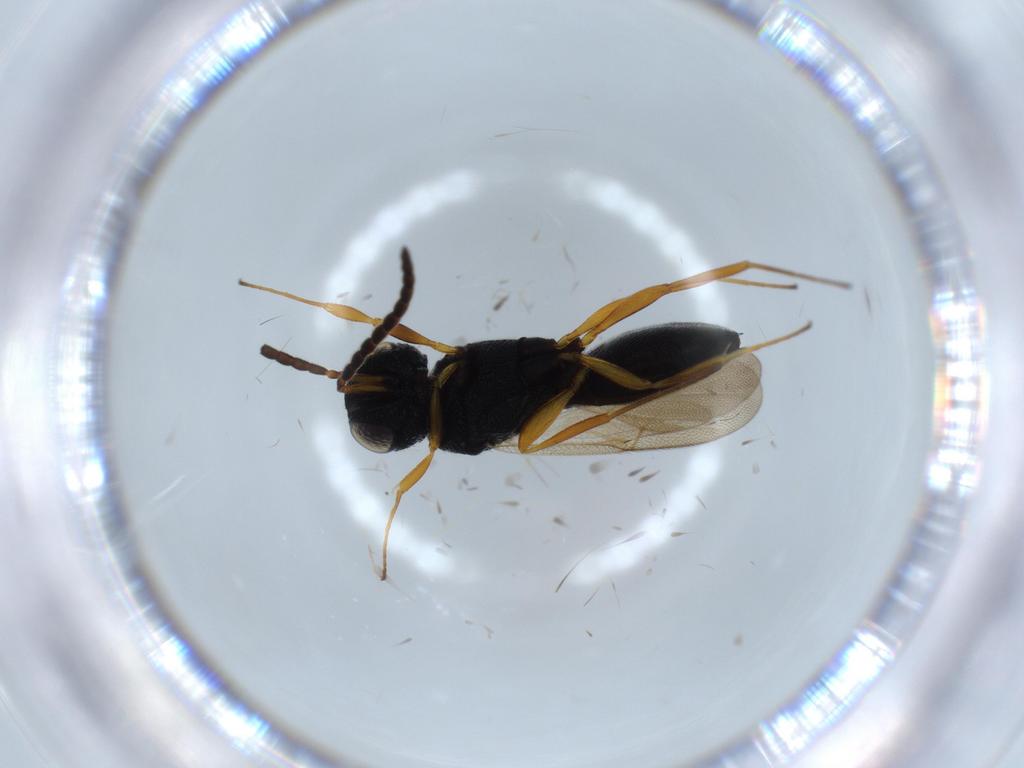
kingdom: Animalia
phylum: Arthropoda
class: Insecta
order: Hymenoptera
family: Scelionidae
